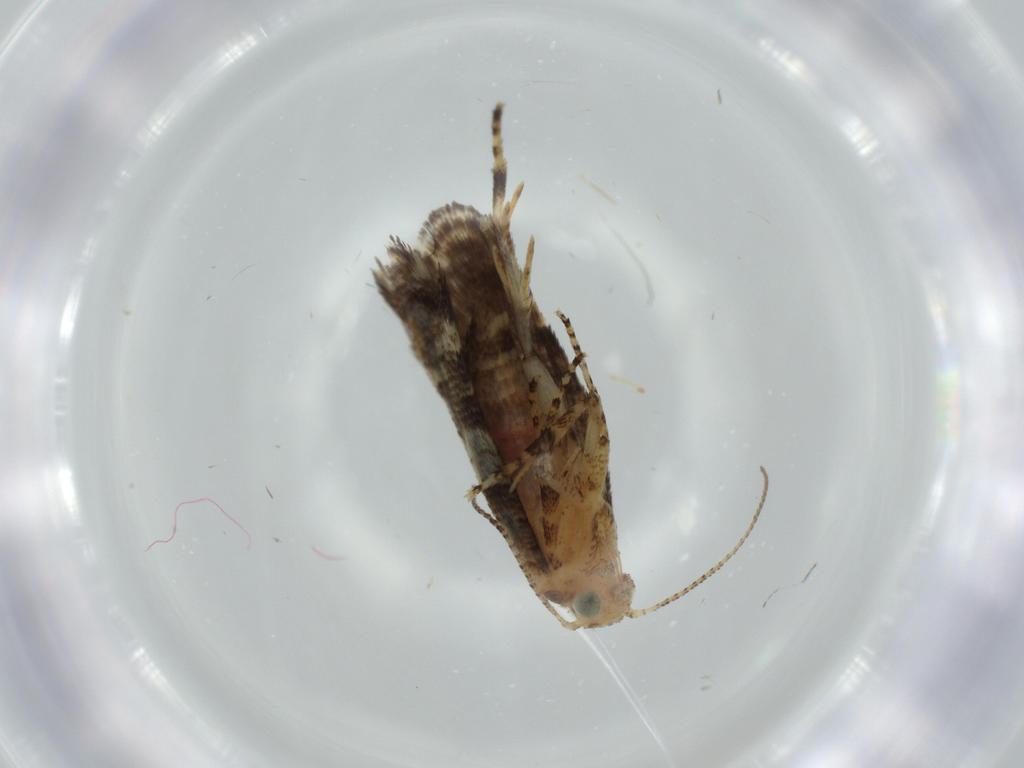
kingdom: Animalia
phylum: Arthropoda
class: Insecta
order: Lepidoptera
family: Glyphipterigidae
